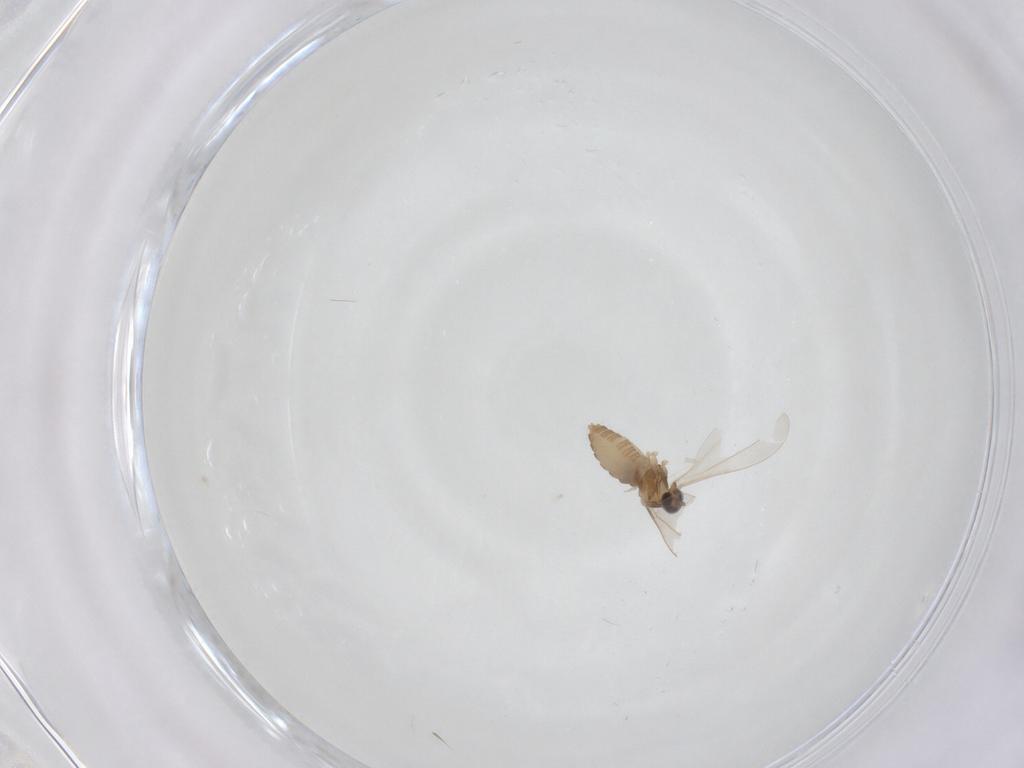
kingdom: Animalia
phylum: Arthropoda
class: Insecta
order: Diptera
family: Cecidomyiidae
